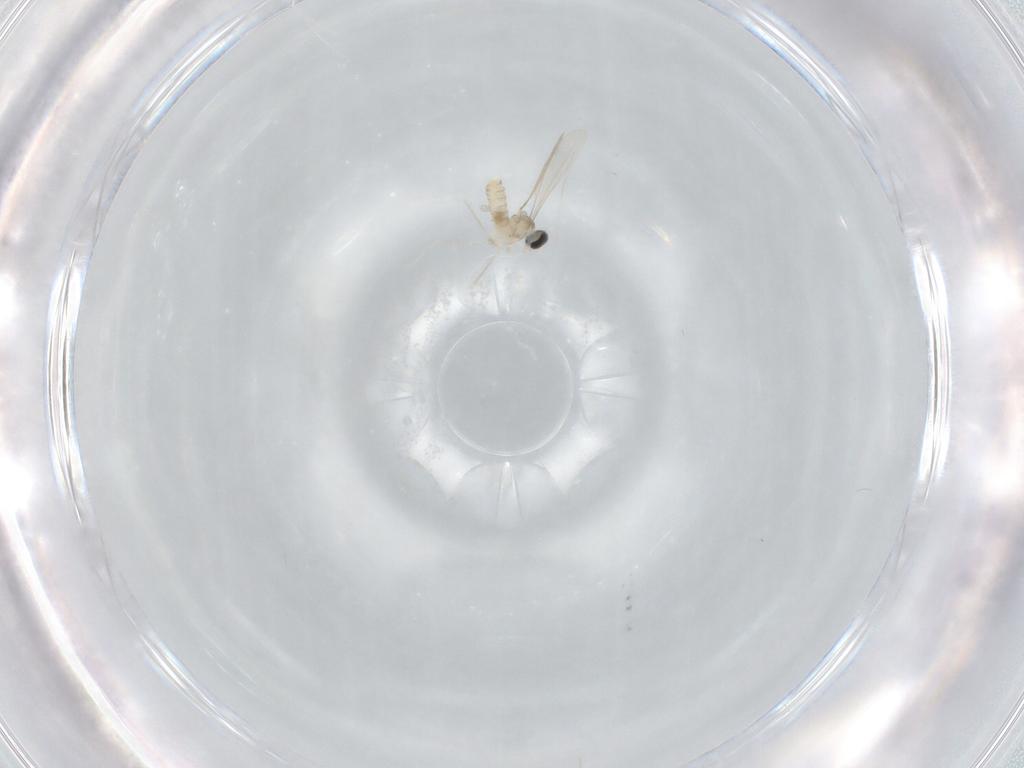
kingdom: Animalia
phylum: Arthropoda
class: Insecta
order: Diptera
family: Cecidomyiidae
